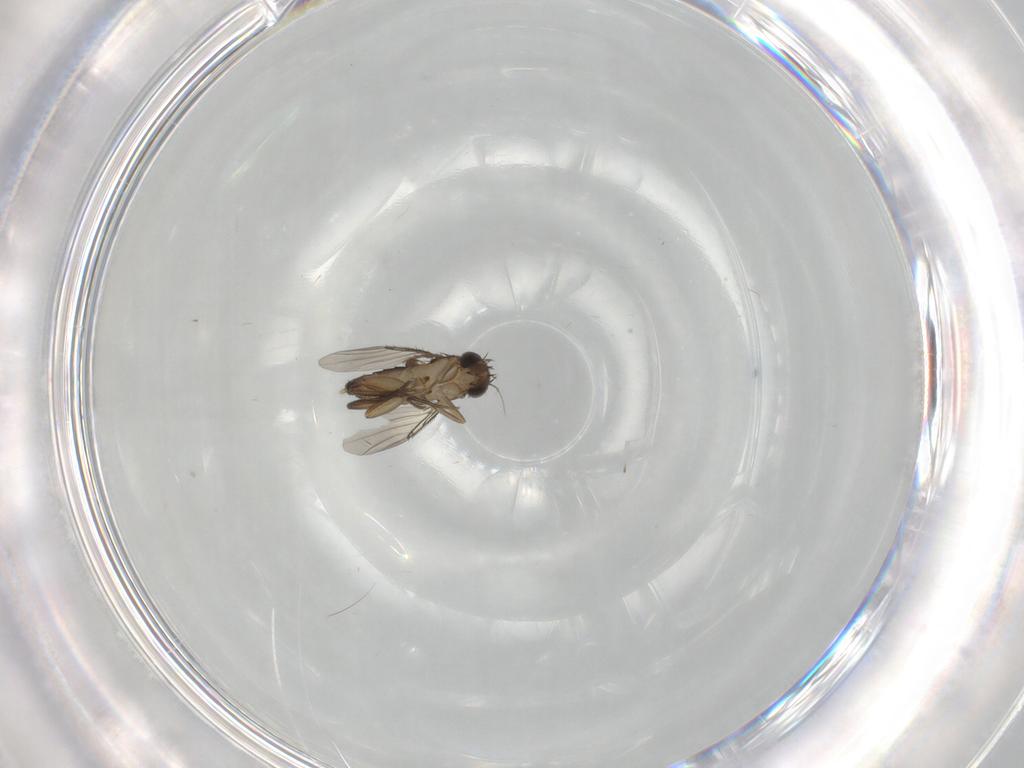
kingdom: Animalia
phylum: Arthropoda
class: Insecta
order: Diptera
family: Phoridae
